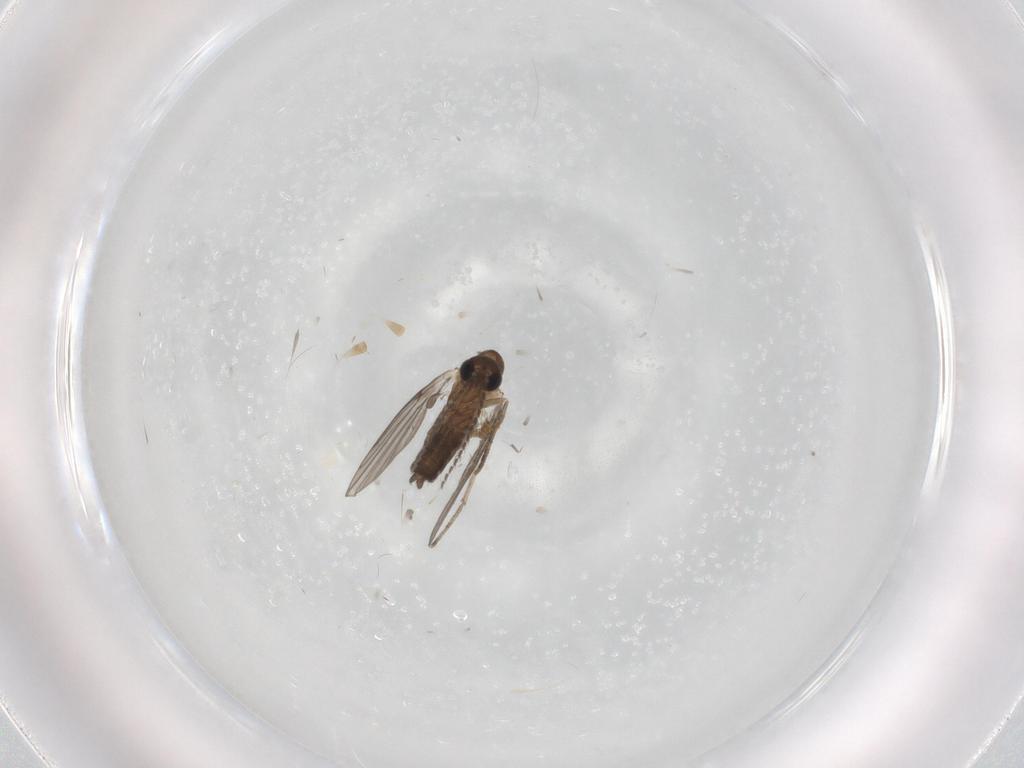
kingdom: Animalia
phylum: Arthropoda
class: Insecta
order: Diptera
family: Psychodidae
